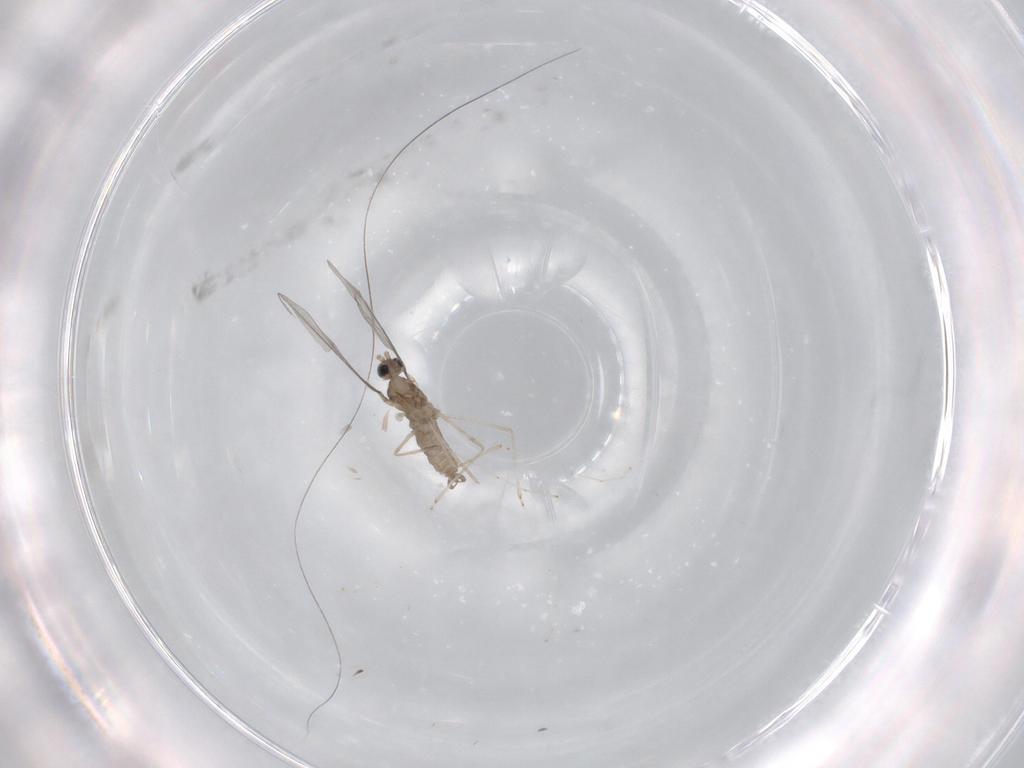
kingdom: Animalia
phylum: Arthropoda
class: Insecta
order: Diptera
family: Cecidomyiidae
